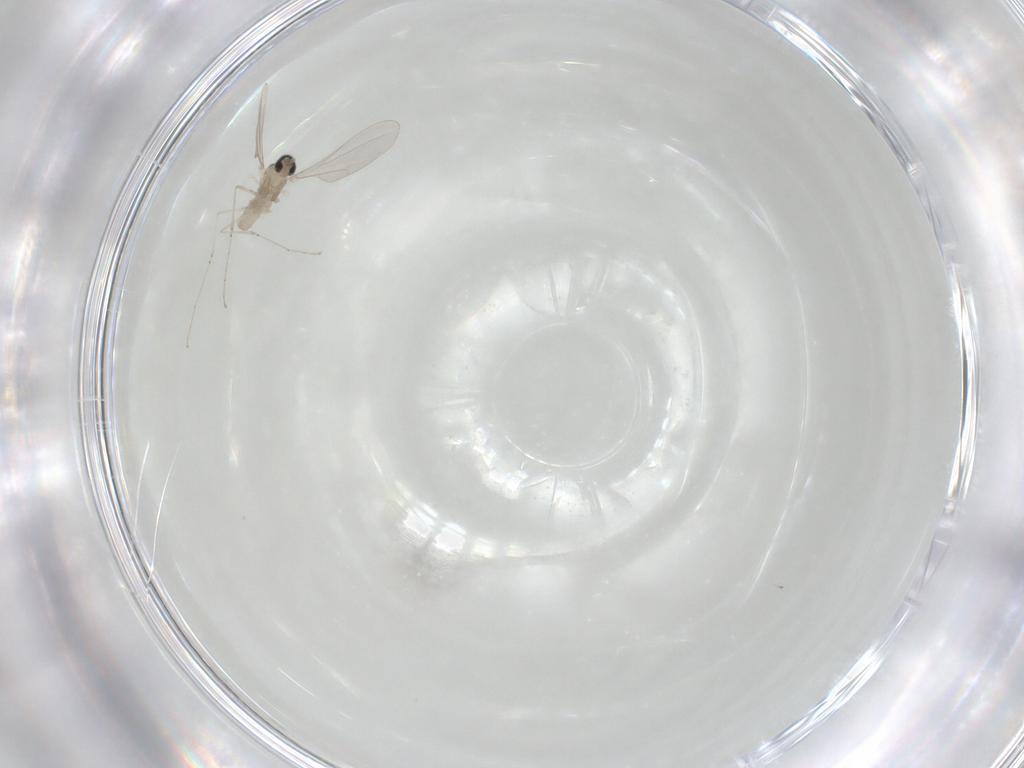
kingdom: Animalia
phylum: Arthropoda
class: Insecta
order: Diptera
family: Cecidomyiidae
